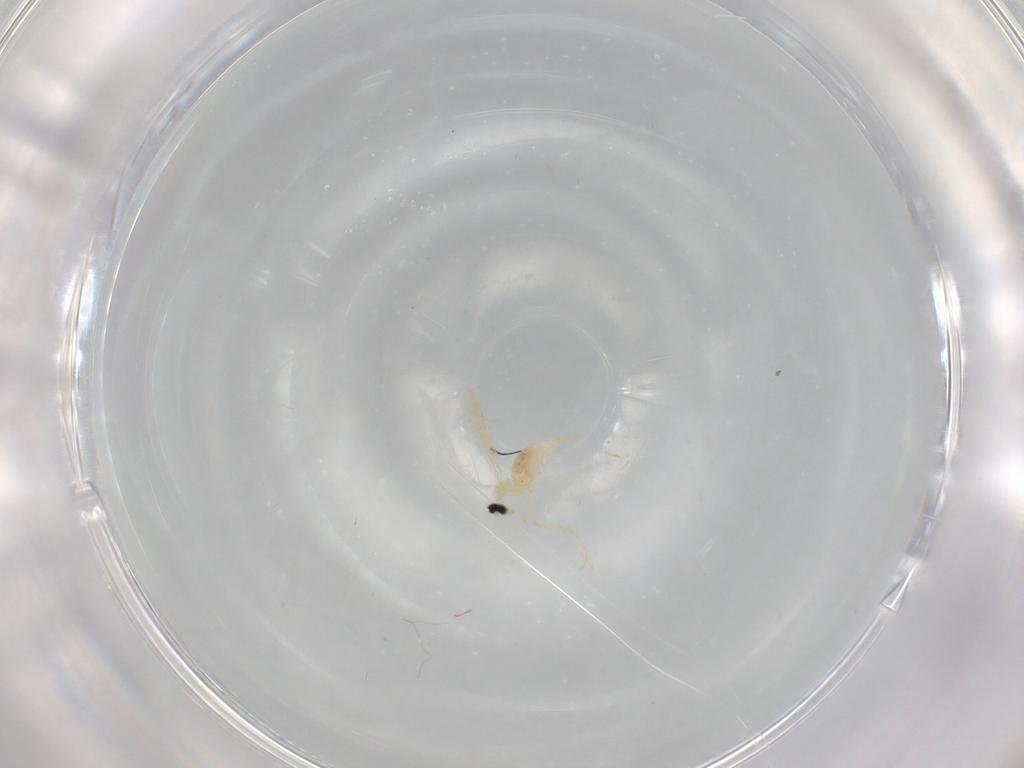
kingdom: Animalia
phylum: Arthropoda
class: Insecta
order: Diptera
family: Cecidomyiidae
